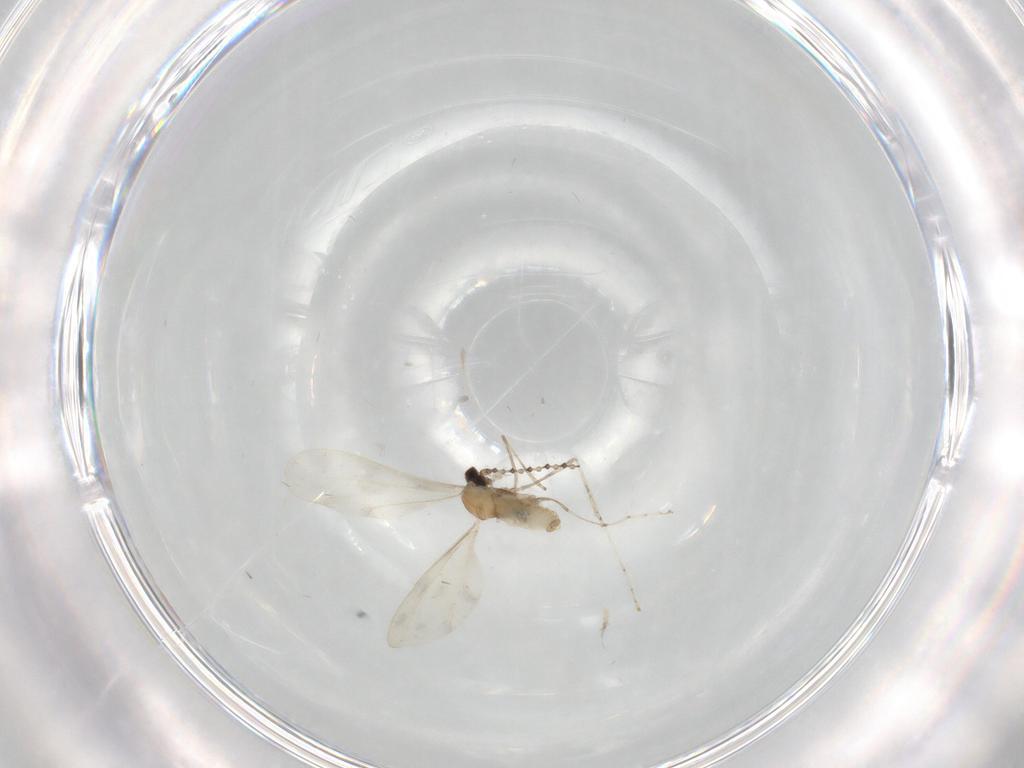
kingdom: Animalia
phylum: Arthropoda
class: Insecta
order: Diptera
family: Cecidomyiidae
